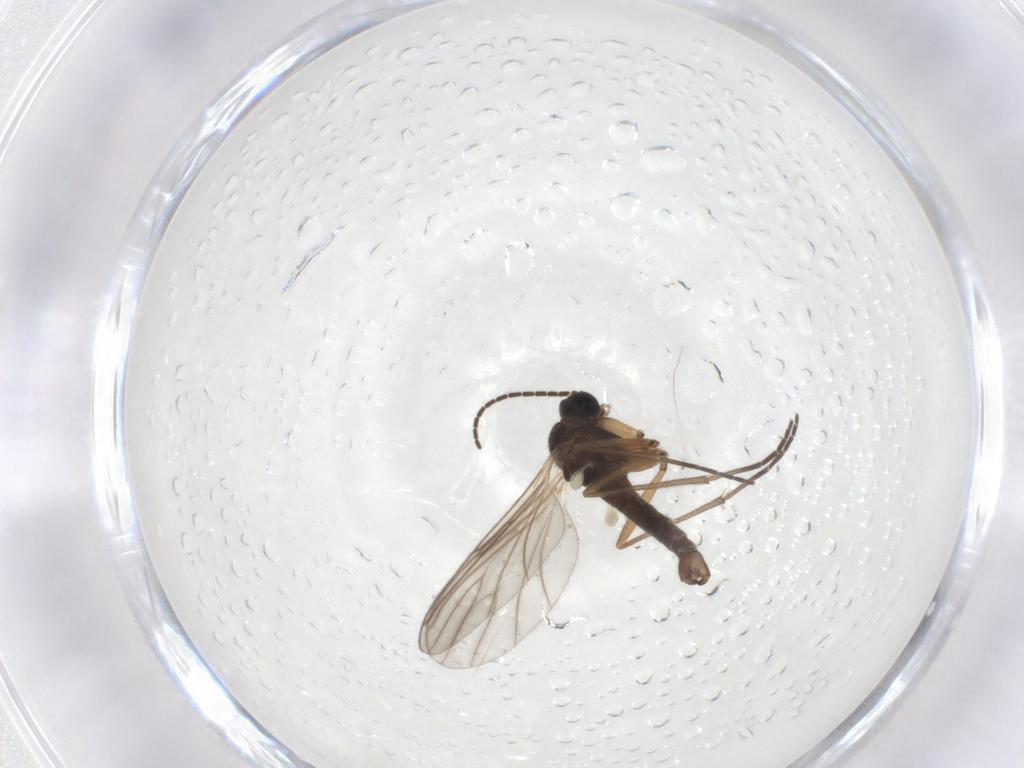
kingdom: Animalia
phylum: Arthropoda
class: Insecta
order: Diptera
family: Sciaridae
